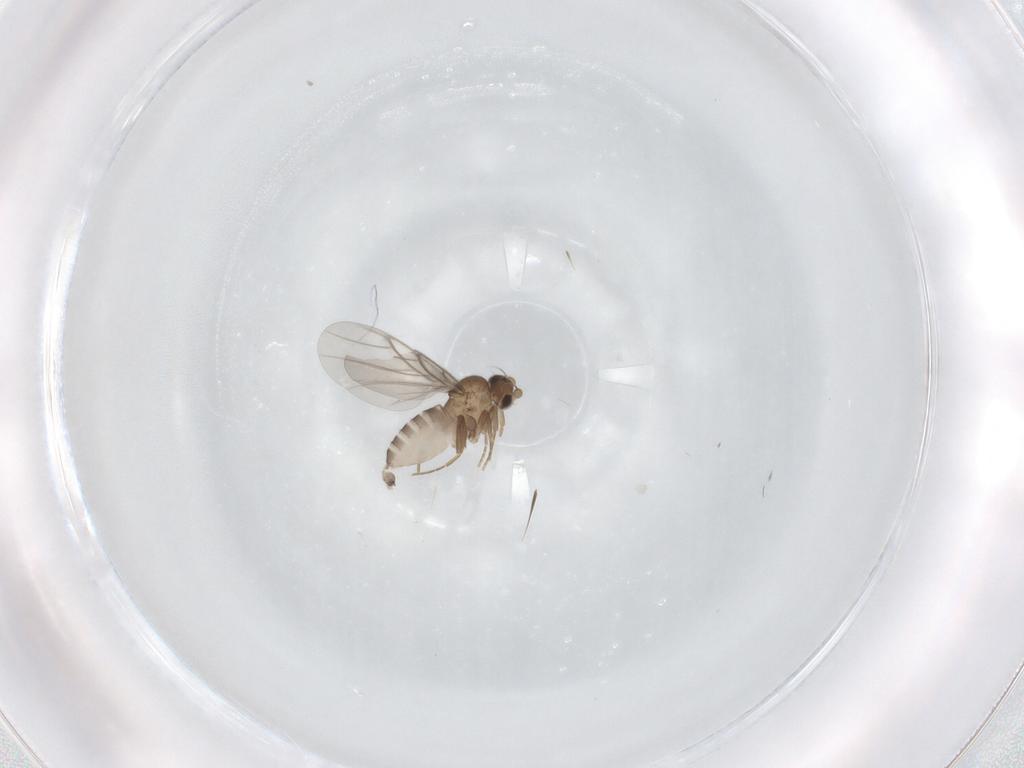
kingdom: Animalia
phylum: Arthropoda
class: Insecta
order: Diptera
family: Hybotidae
